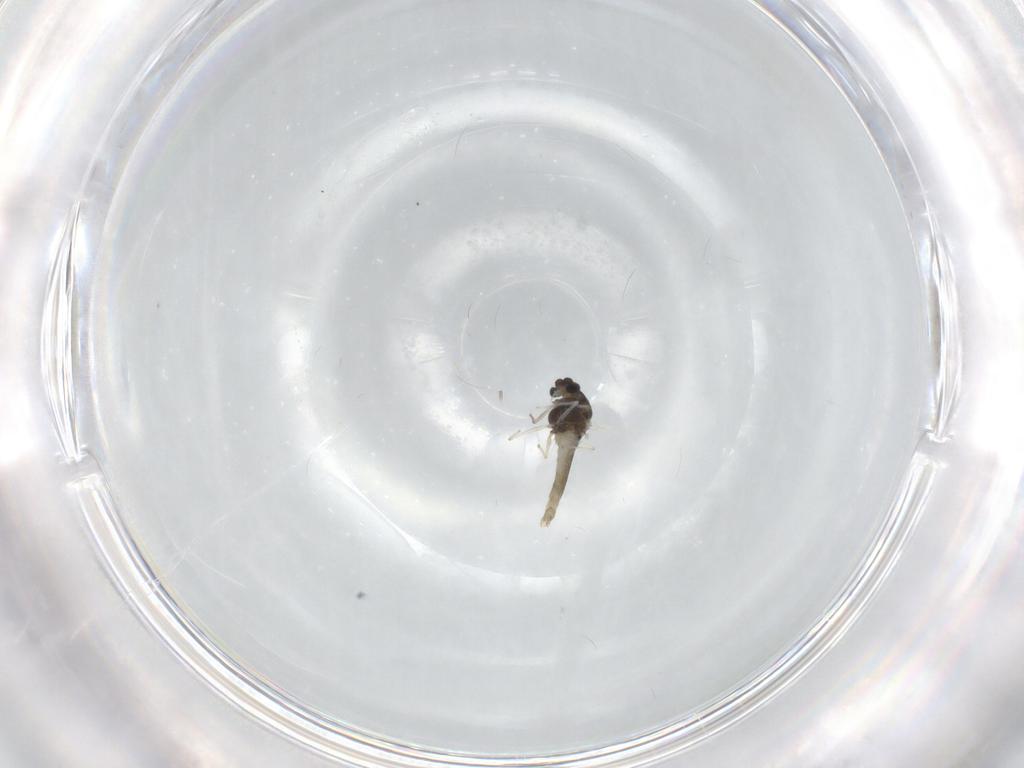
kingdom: Animalia
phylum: Arthropoda
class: Insecta
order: Diptera
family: Chironomidae
